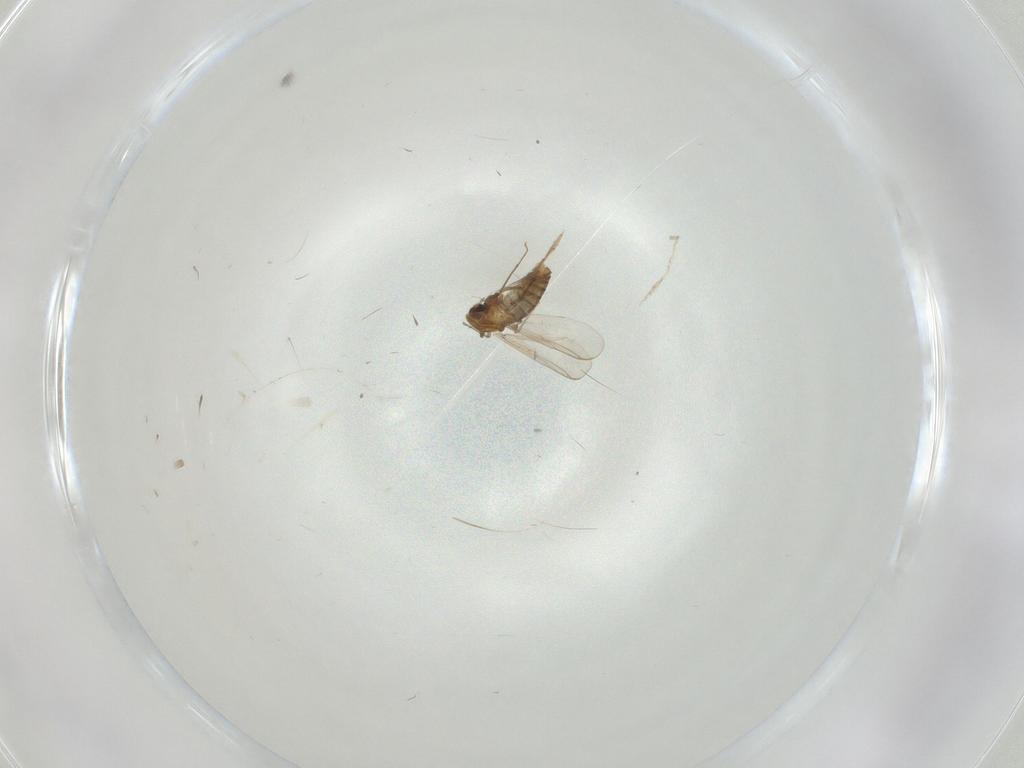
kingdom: Animalia
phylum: Arthropoda
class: Insecta
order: Diptera
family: Chironomidae
